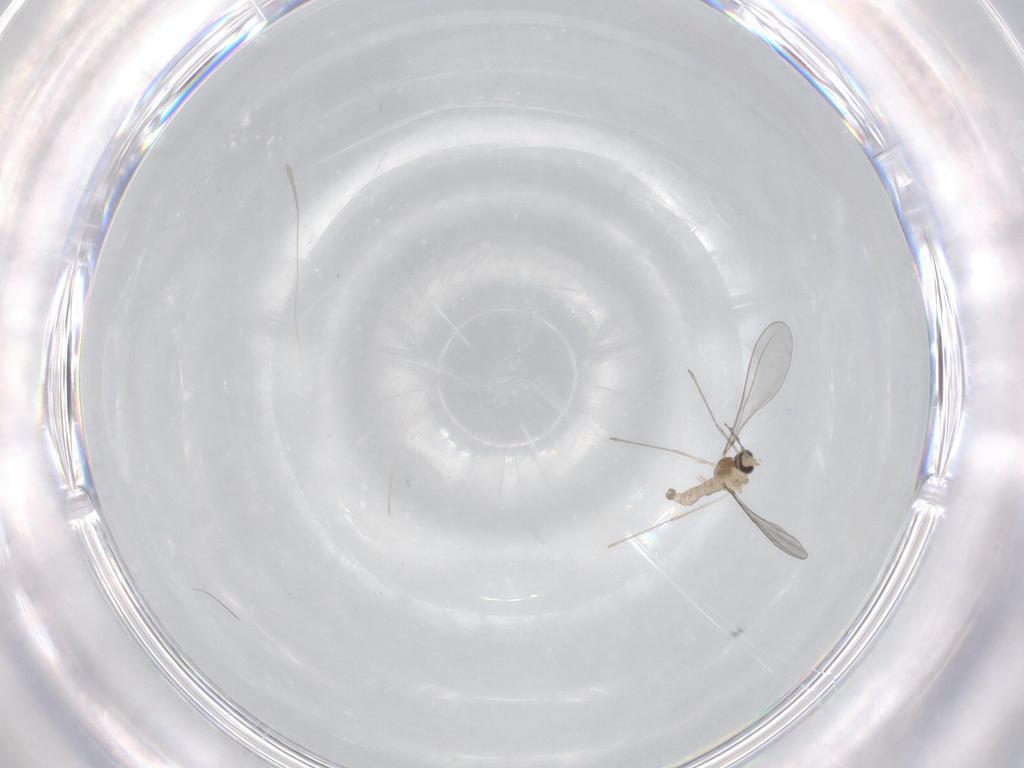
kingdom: Animalia
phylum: Arthropoda
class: Insecta
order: Diptera
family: Cecidomyiidae
